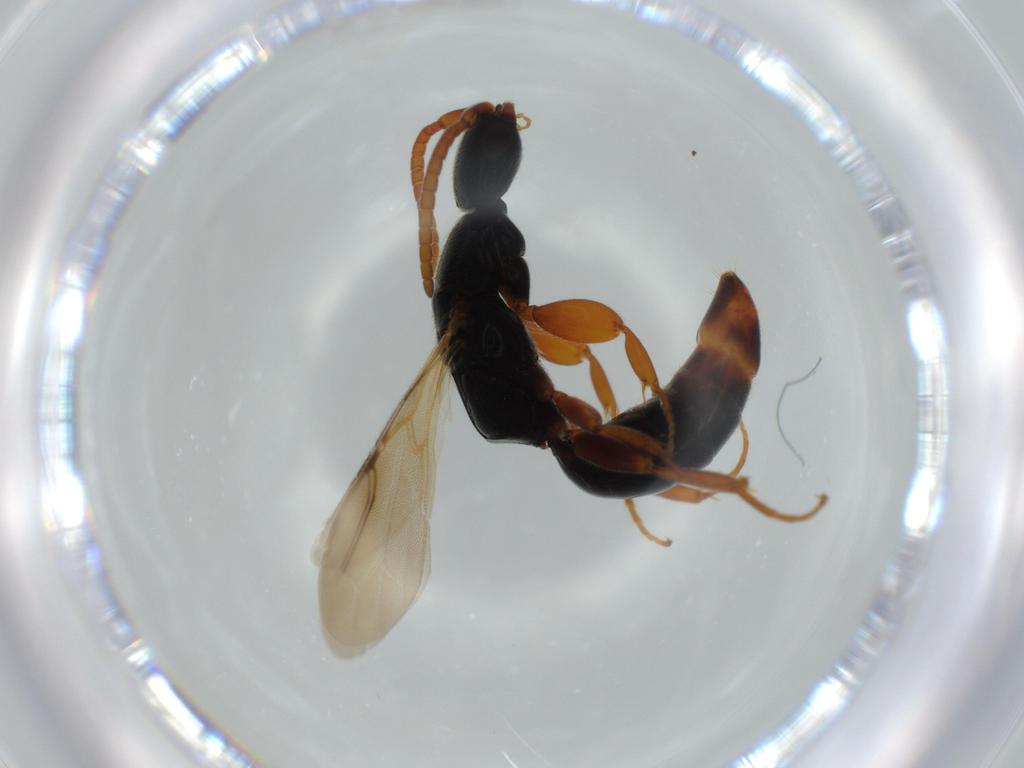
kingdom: Animalia
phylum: Arthropoda
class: Insecta
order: Hymenoptera
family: Bethylidae
